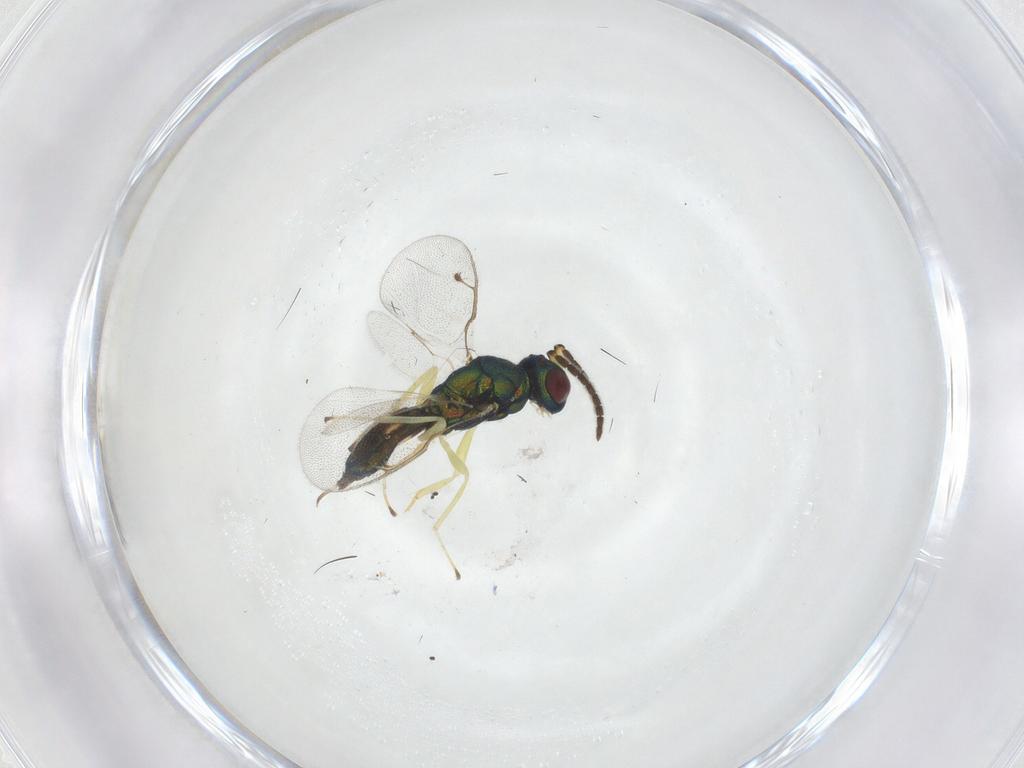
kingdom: Animalia
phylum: Arthropoda
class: Insecta
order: Hymenoptera
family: Pteromalidae
